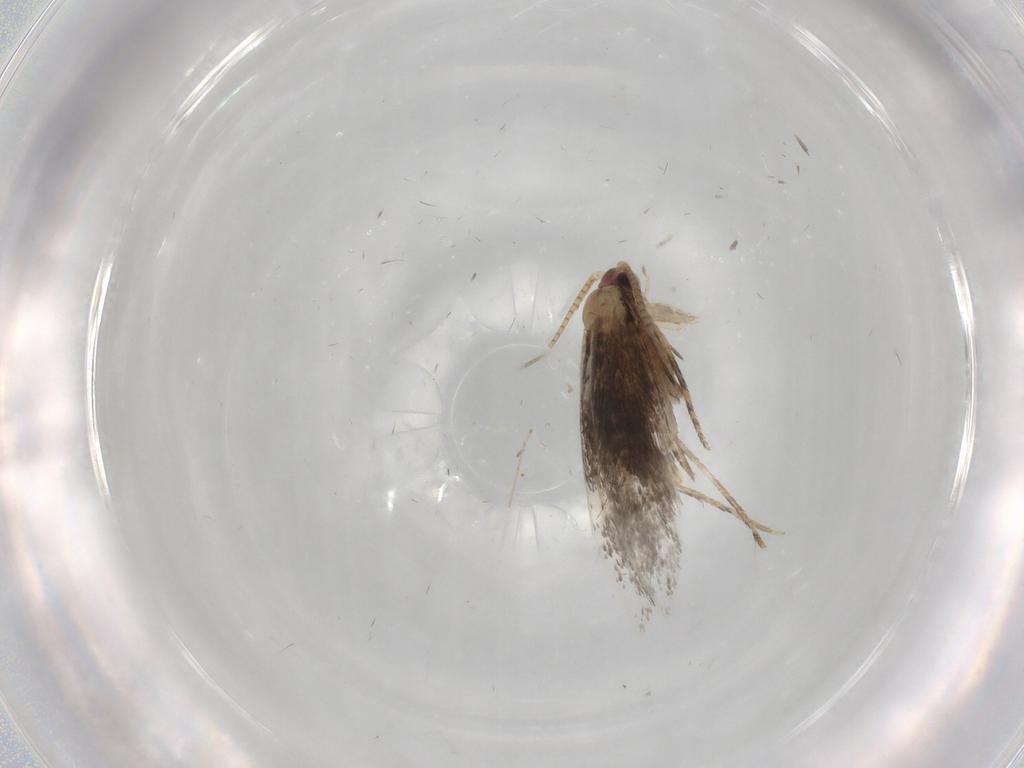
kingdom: Animalia
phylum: Arthropoda
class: Insecta
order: Lepidoptera
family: Tineidae
